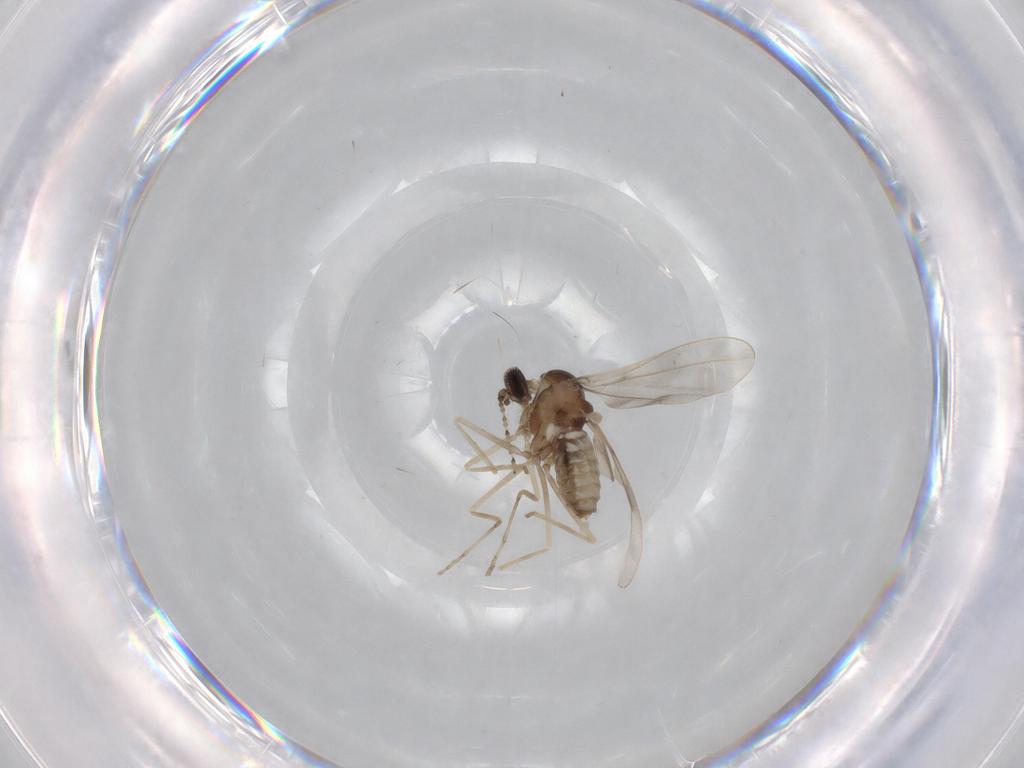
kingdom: Animalia
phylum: Arthropoda
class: Insecta
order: Diptera
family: Cecidomyiidae
